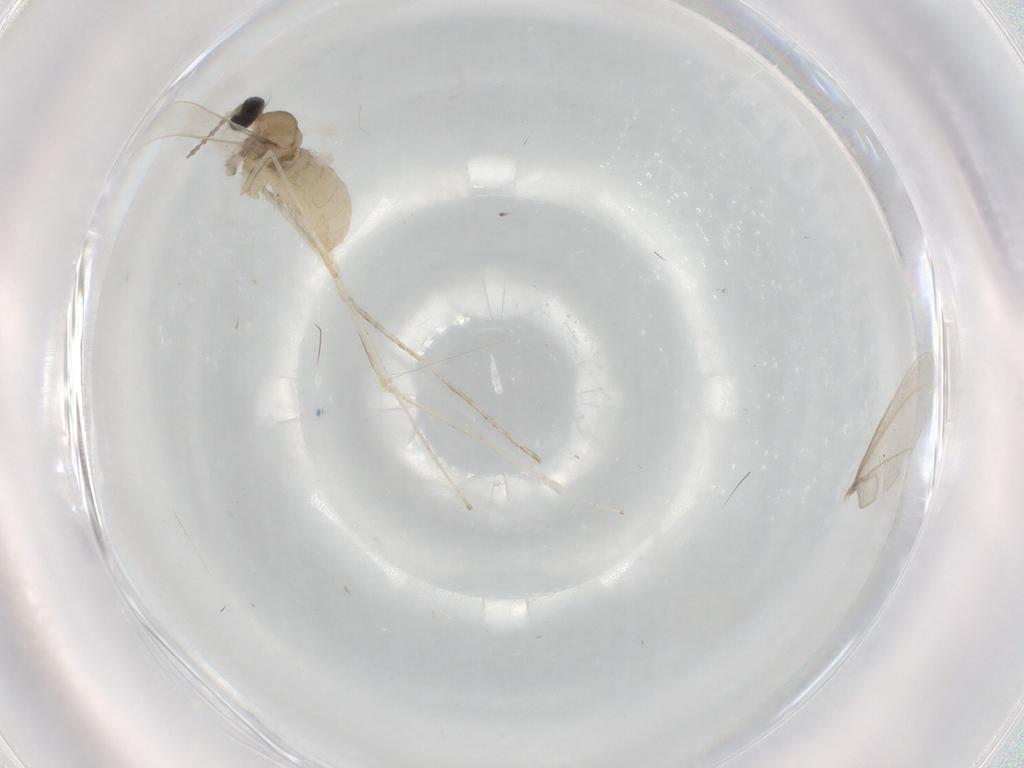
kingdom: Animalia
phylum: Arthropoda
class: Insecta
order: Diptera
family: Cecidomyiidae
